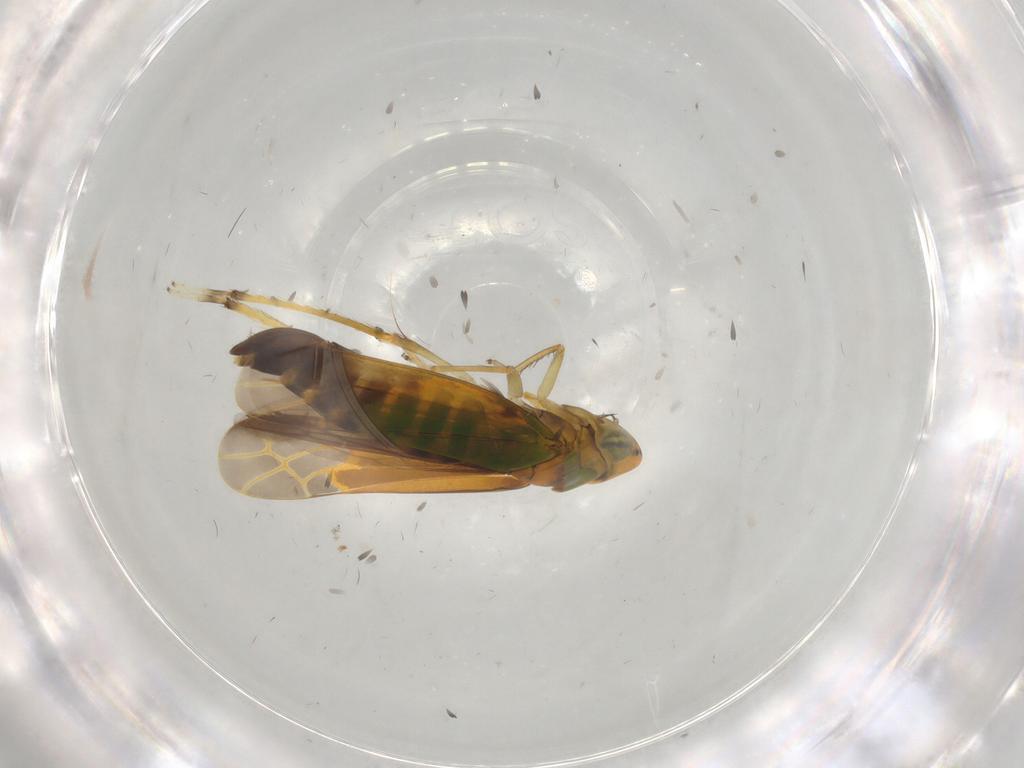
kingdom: Animalia
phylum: Arthropoda
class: Insecta
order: Hemiptera
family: Cicadellidae
